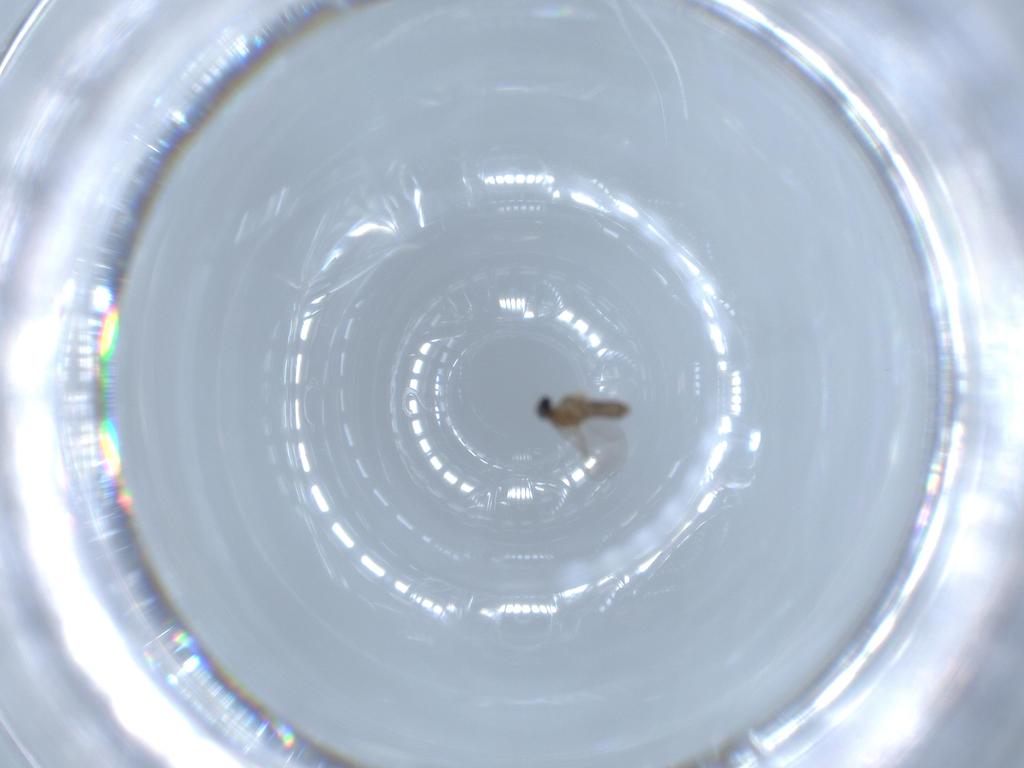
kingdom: Animalia
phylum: Arthropoda
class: Insecta
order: Diptera
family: Cecidomyiidae
